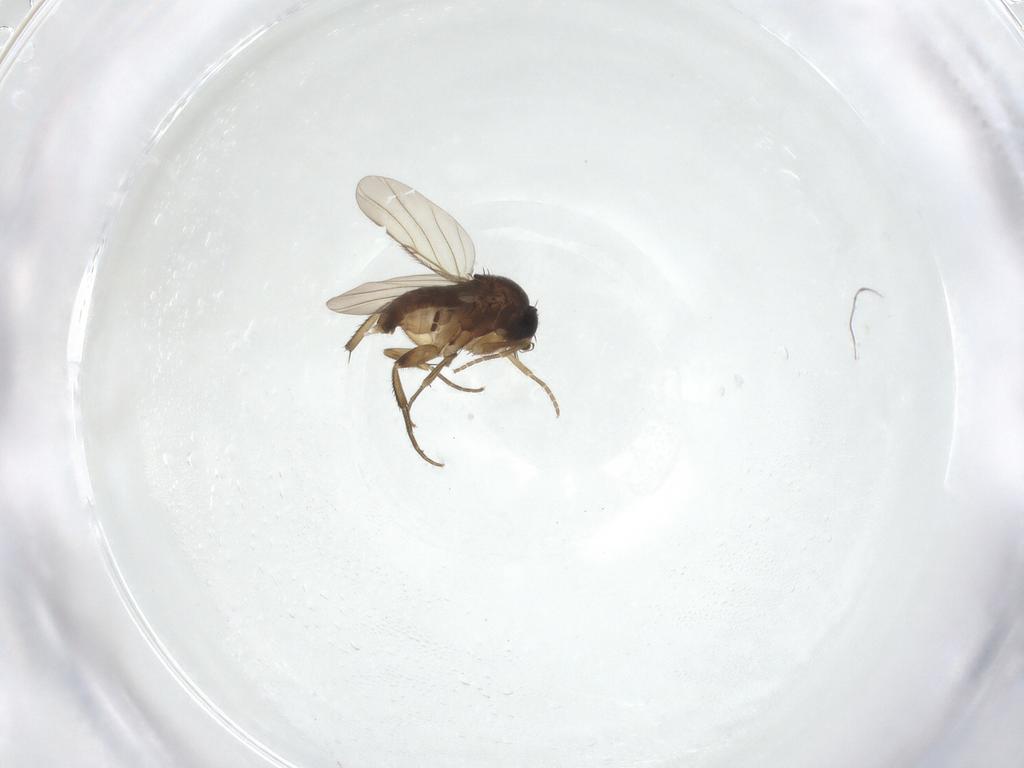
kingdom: Animalia
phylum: Arthropoda
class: Insecta
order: Diptera
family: Phoridae
